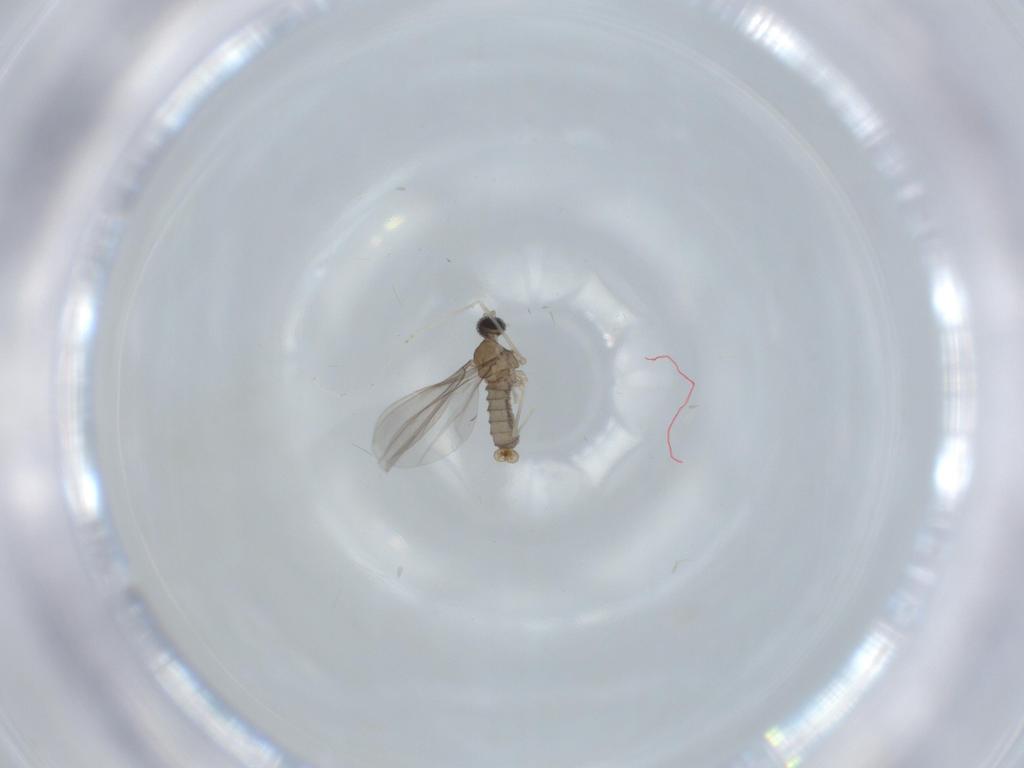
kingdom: Animalia
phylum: Arthropoda
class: Insecta
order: Diptera
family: Cecidomyiidae
